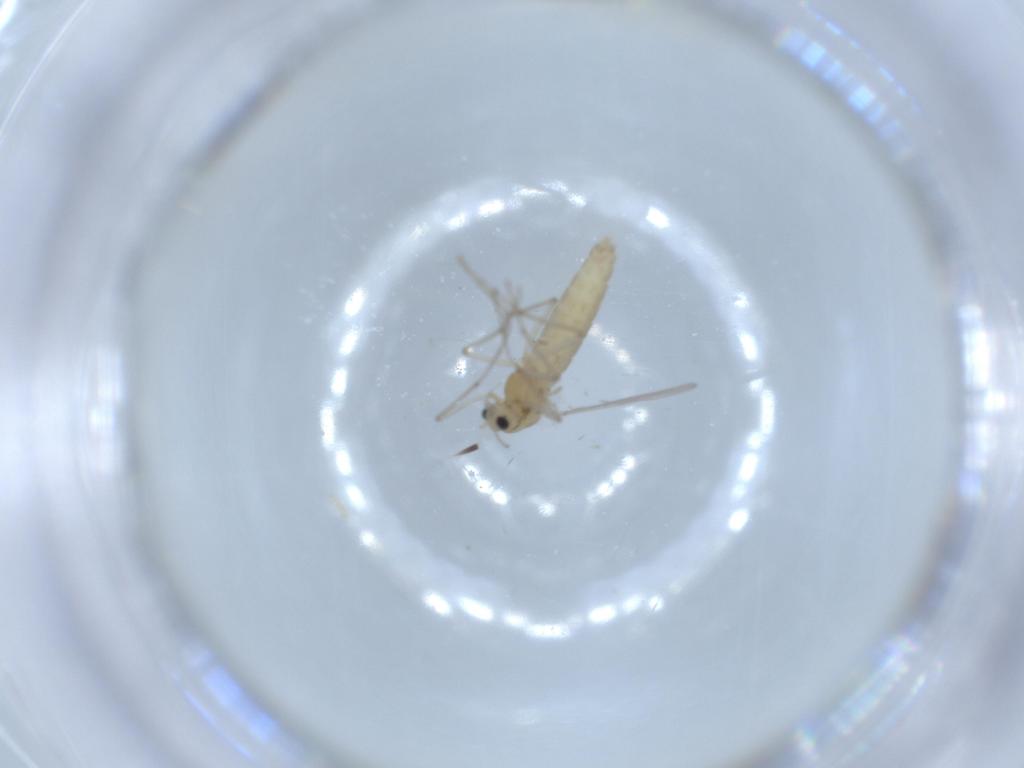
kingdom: Animalia
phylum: Arthropoda
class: Insecta
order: Diptera
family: Chironomidae
